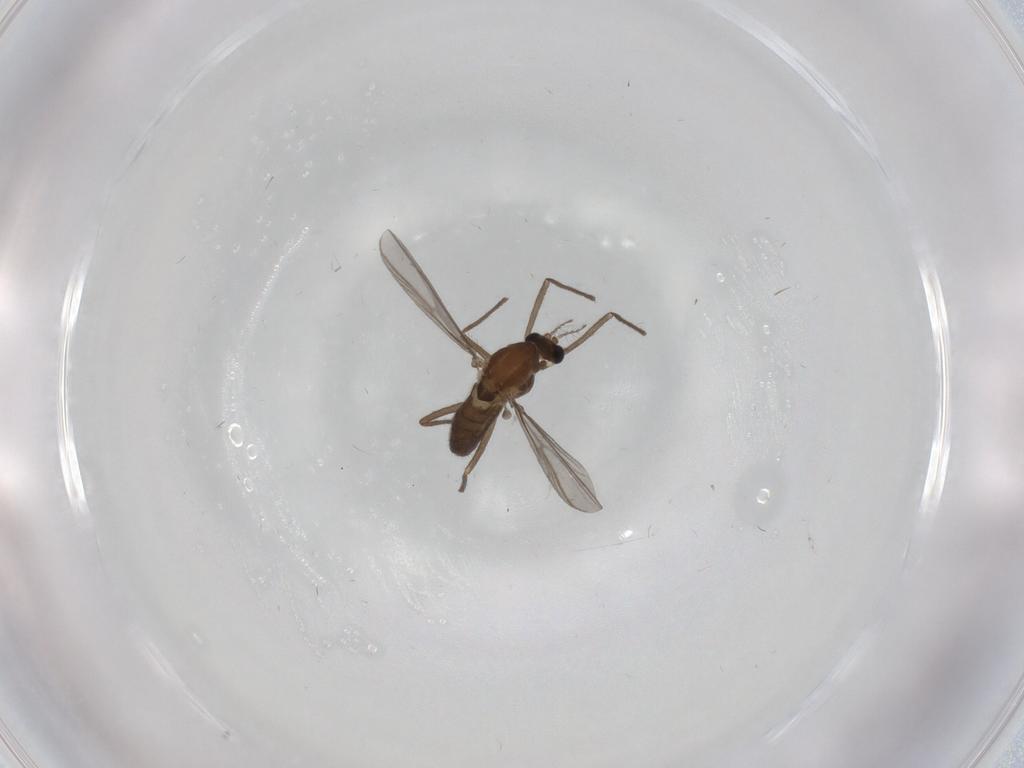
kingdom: Animalia
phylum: Arthropoda
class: Insecta
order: Diptera
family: Chironomidae
